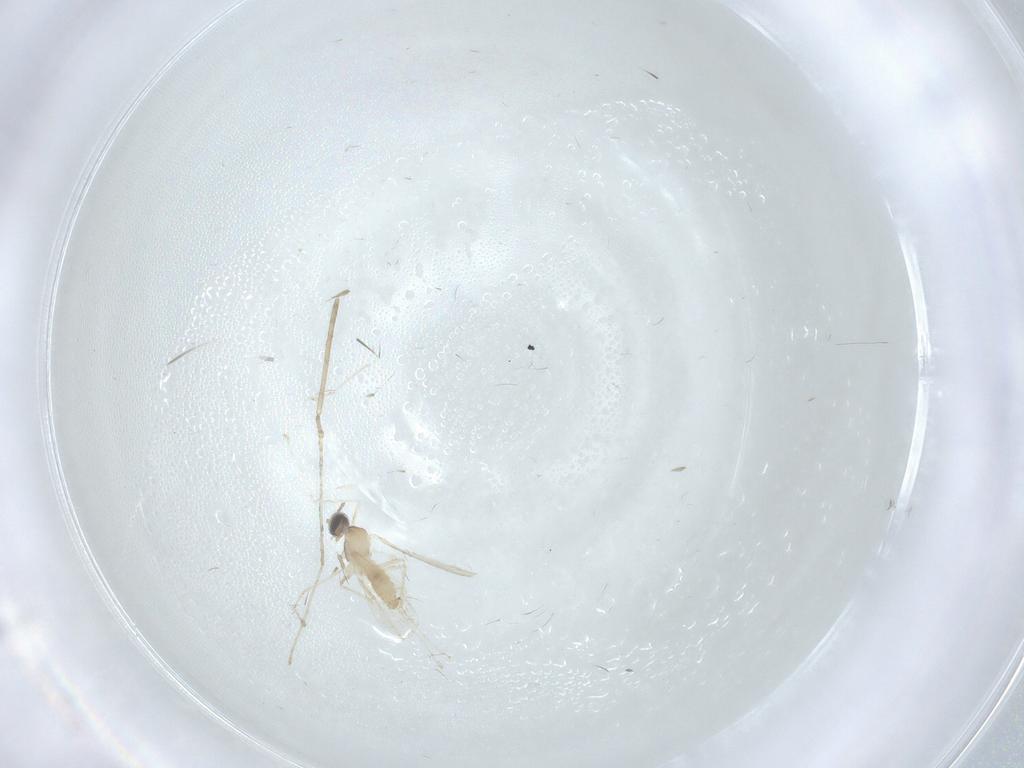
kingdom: Animalia
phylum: Arthropoda
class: Insecta
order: Diptera
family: Cecidomyiidae
